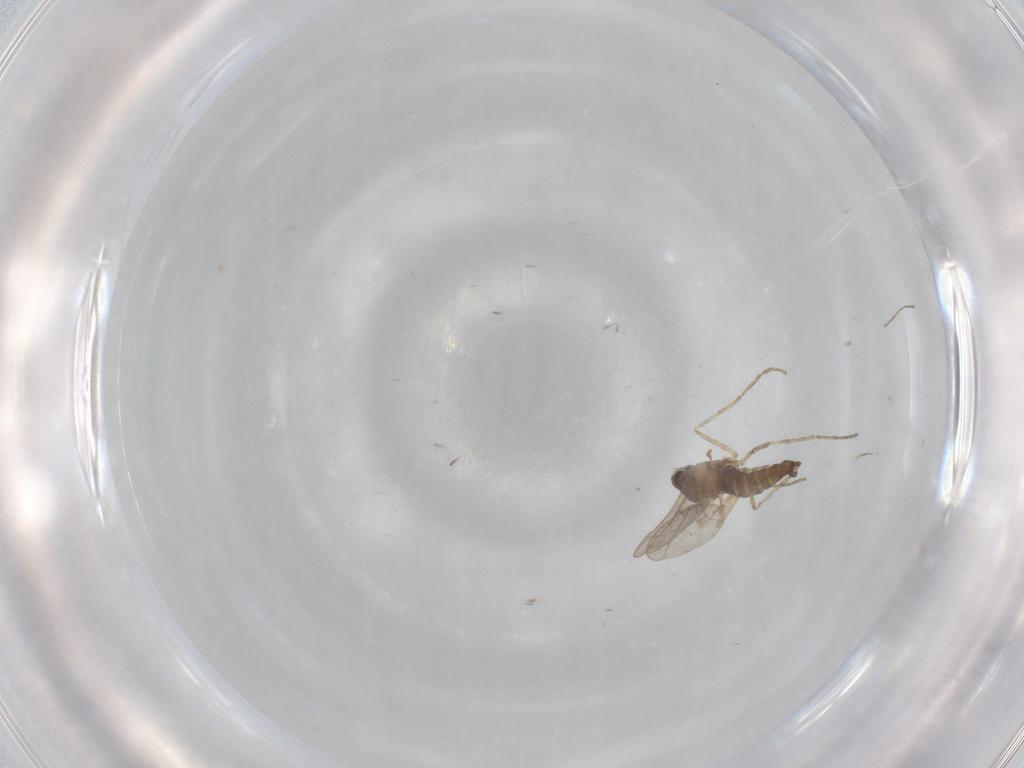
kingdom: Animalia
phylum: Arthropoda
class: Insecta
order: Diptera
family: Cecidomyiidae
